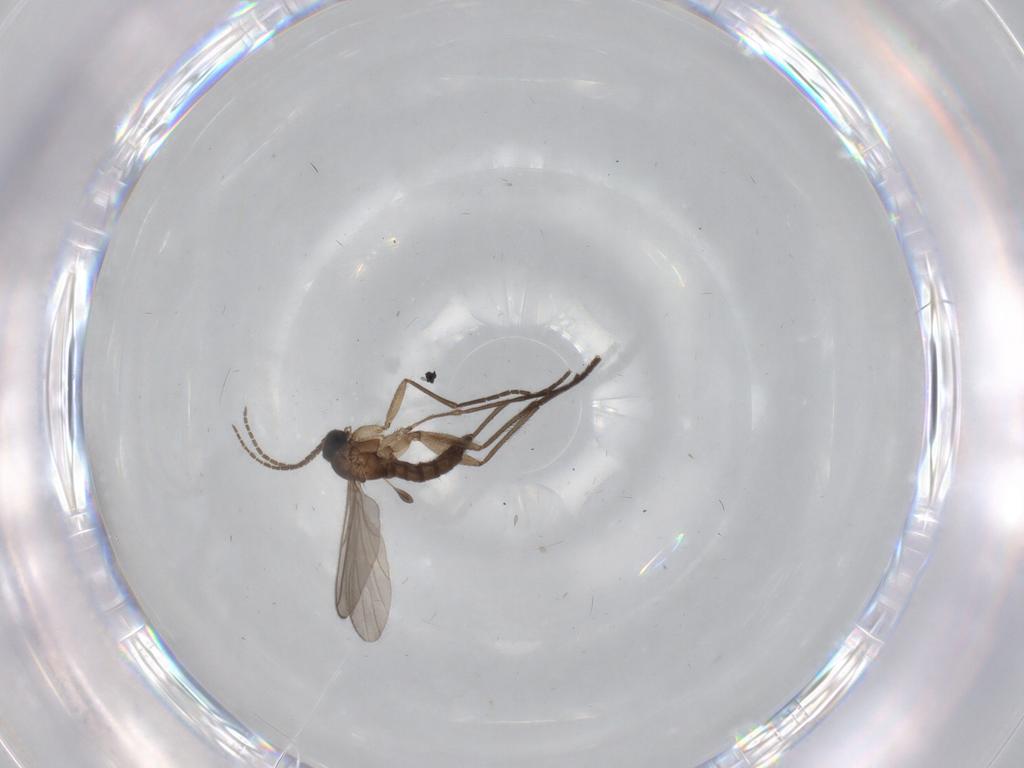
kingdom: Animalia
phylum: Arthropoda
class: Insecta
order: Diptera
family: Sciaridae
